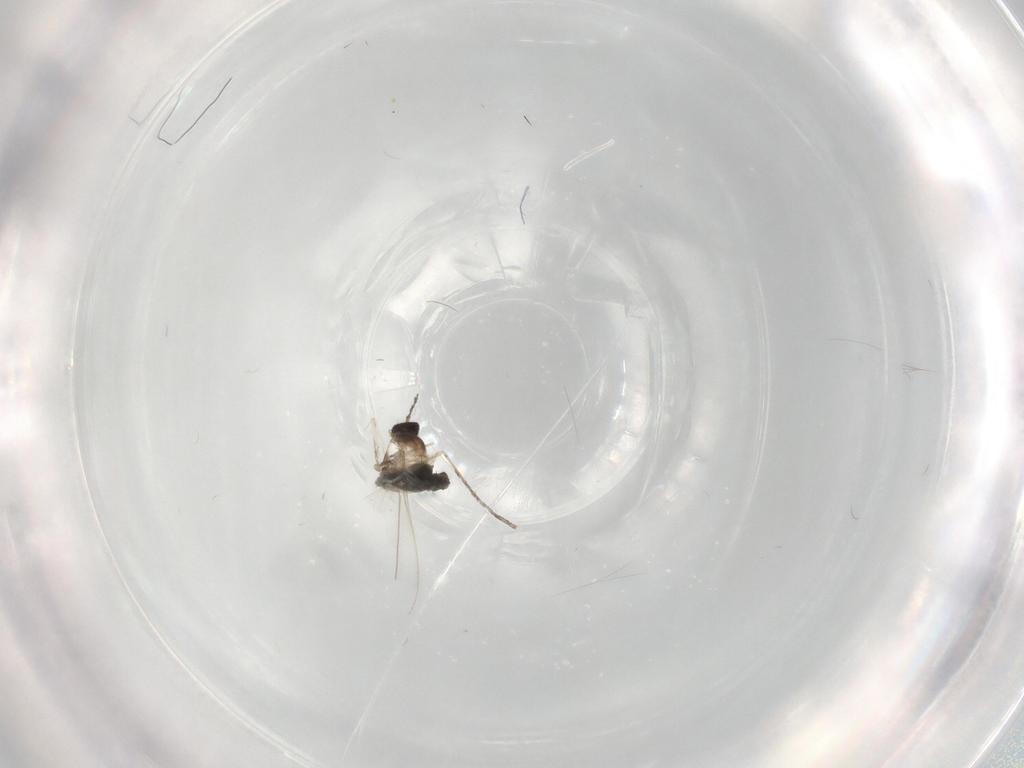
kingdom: Animalia
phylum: Arthropoda
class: Insecta
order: Diptera
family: Cecidomyiidae
